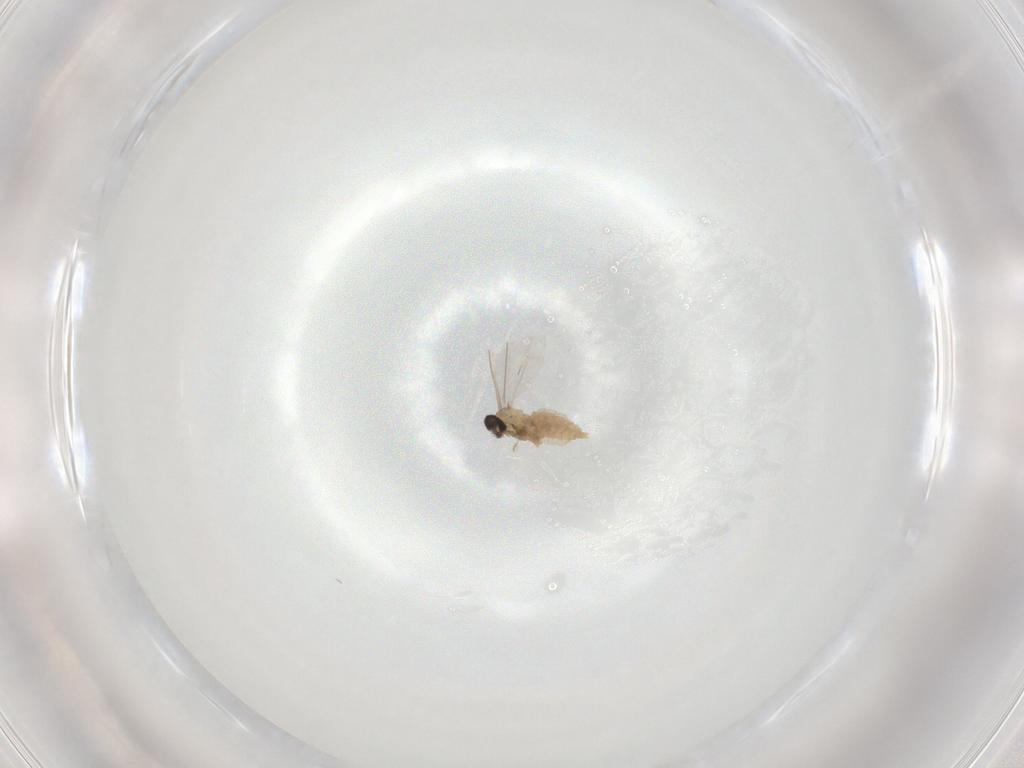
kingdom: Animalia
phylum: Arthropoda
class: Insecta
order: Diptera
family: Cecidomyiidae
